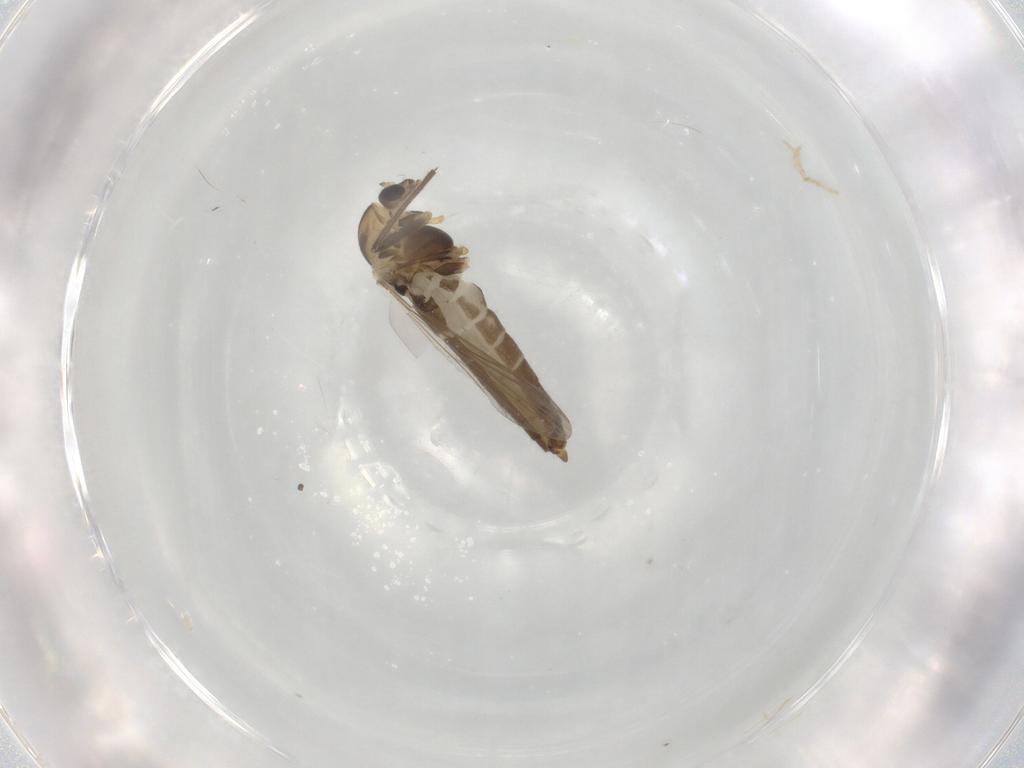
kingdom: Animalia
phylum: Arthropoda
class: Insecta
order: Diptera
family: Chironomidae
